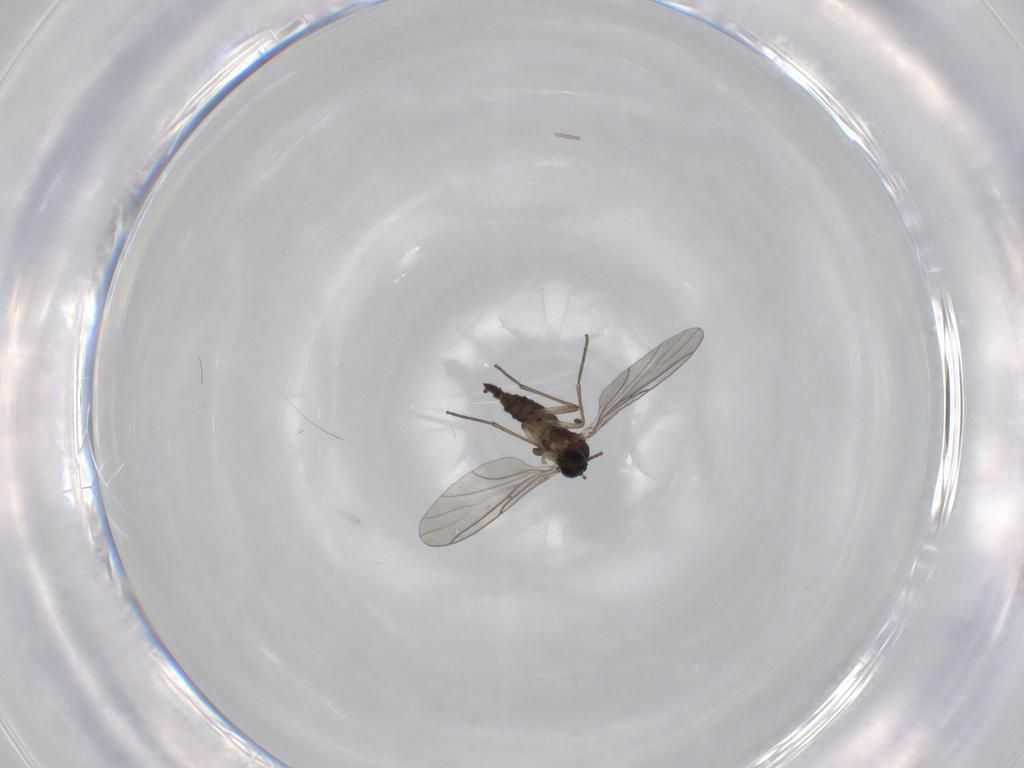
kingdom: Animalia
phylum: Arthropoda
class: Insecta
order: Diptera
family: Sciaridae
